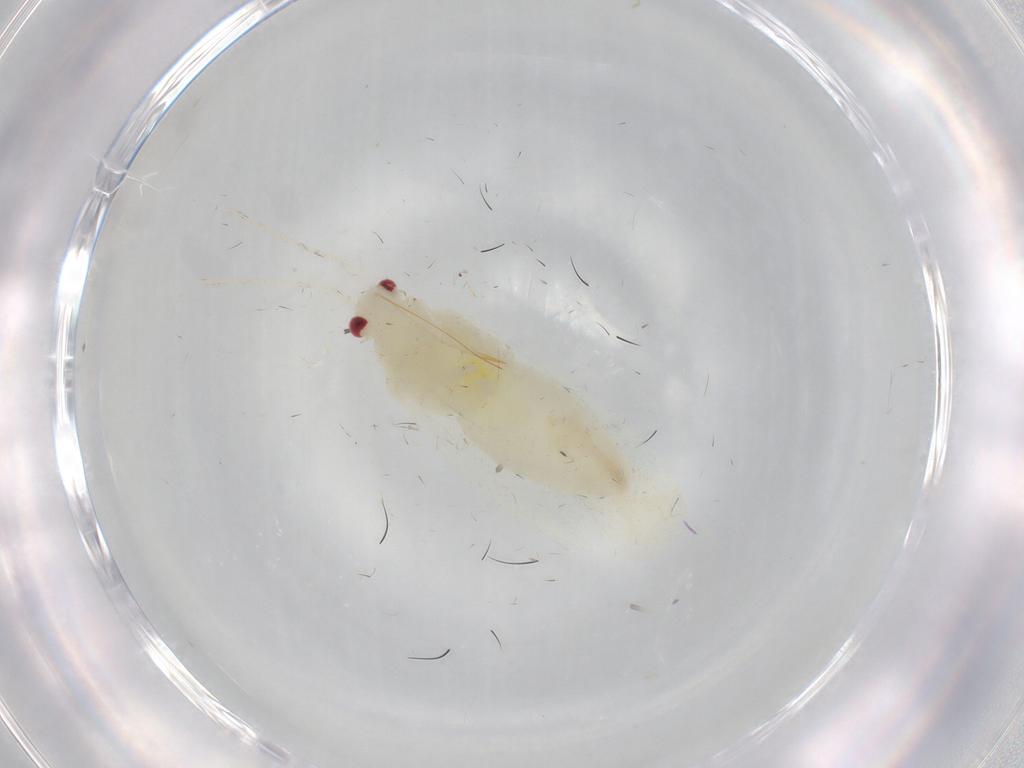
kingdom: Animalia
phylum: Arthropoda
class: Insecta
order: Hemiptera
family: Miridae
